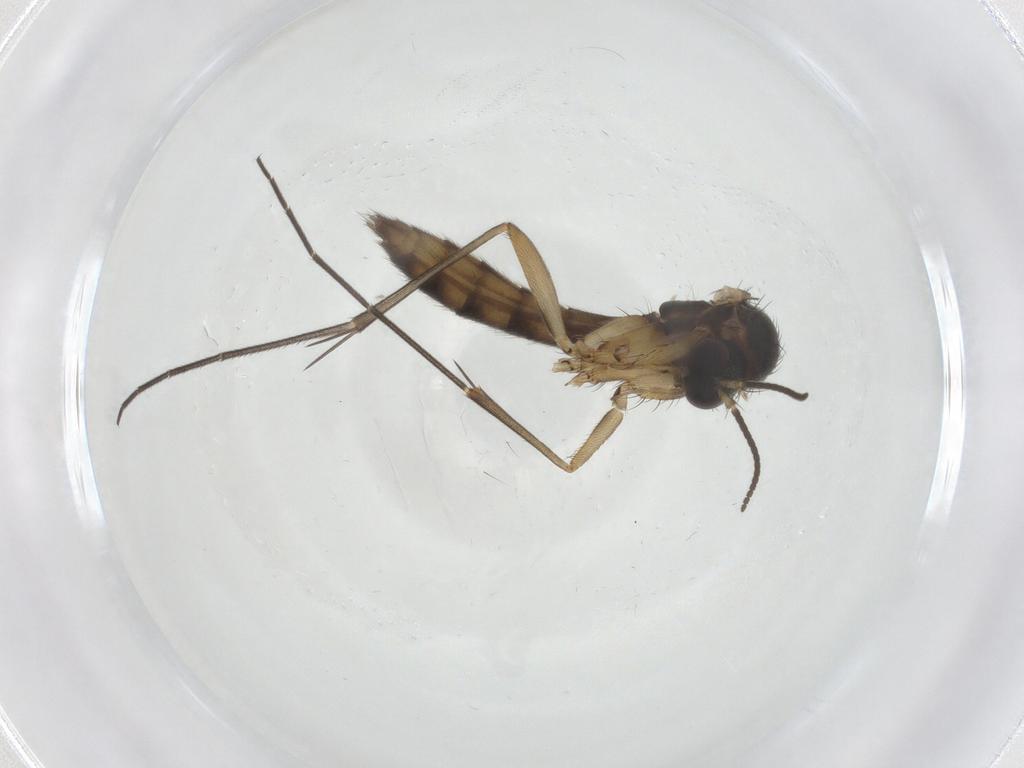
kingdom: Animalia
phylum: Arthropoda
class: Insecta
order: Diptera
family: Mycetophilidae
